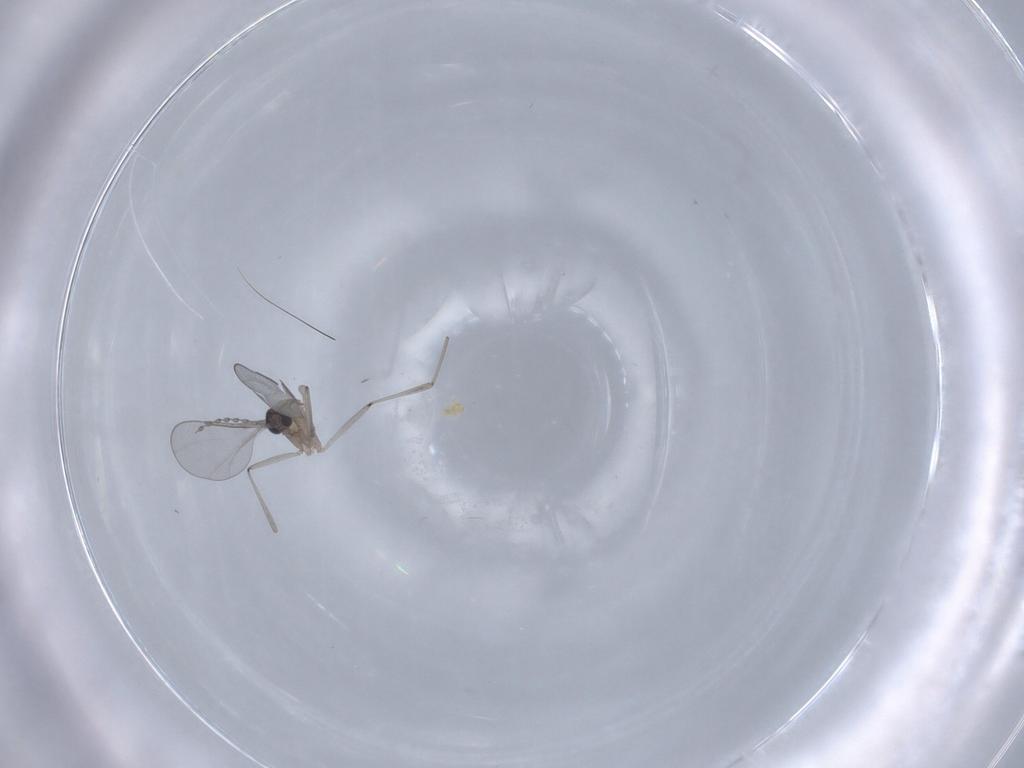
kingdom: Animalia
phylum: Arthropoda
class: Insecta
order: Diptera
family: Cecidomyiidae
